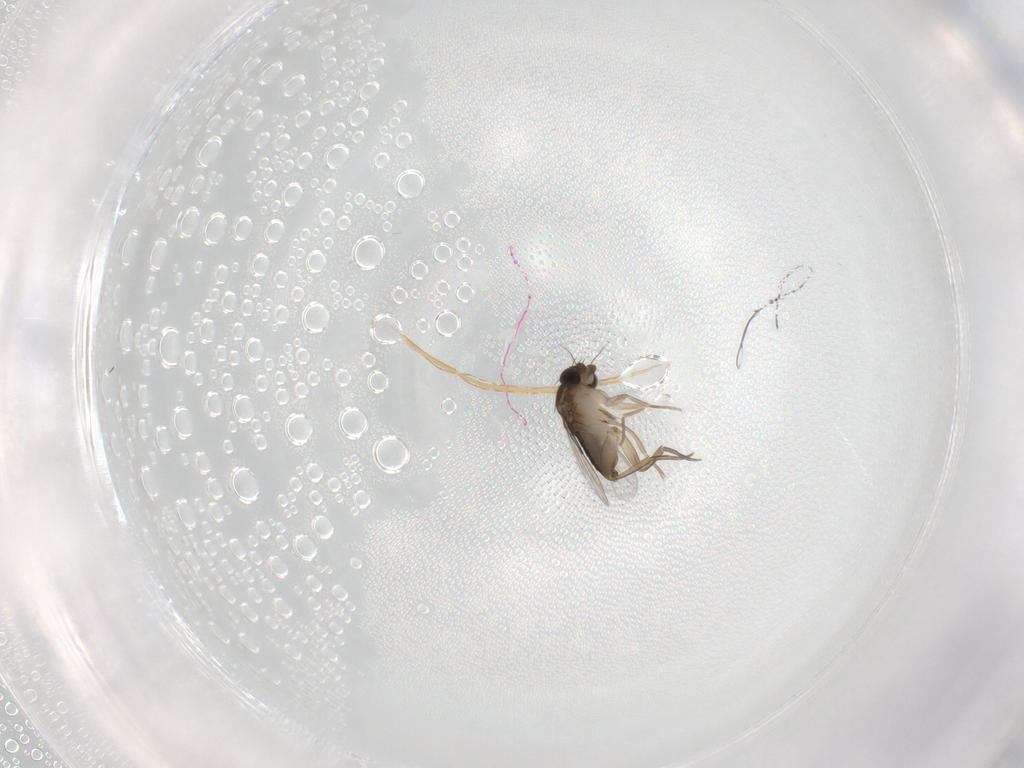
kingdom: Animalia
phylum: Arthropoda
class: Insecta
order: Diptera
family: Phoridae
